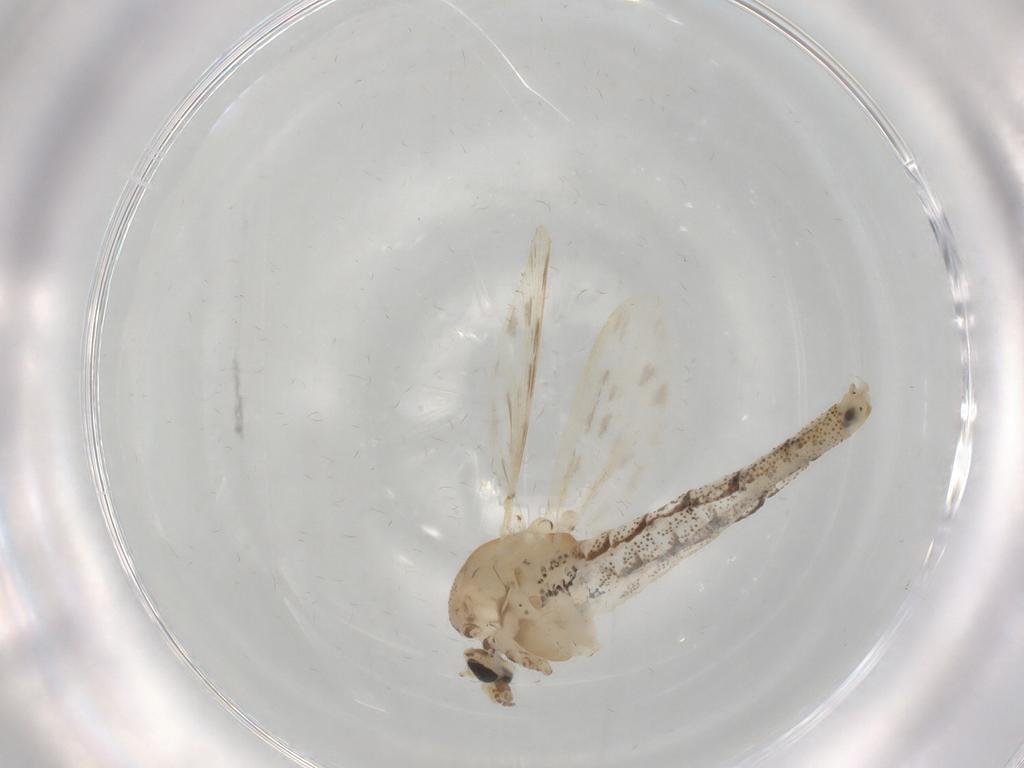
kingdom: Animalia
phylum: Arthropoda
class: Insecta
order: Diptera
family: Chaoboridae
